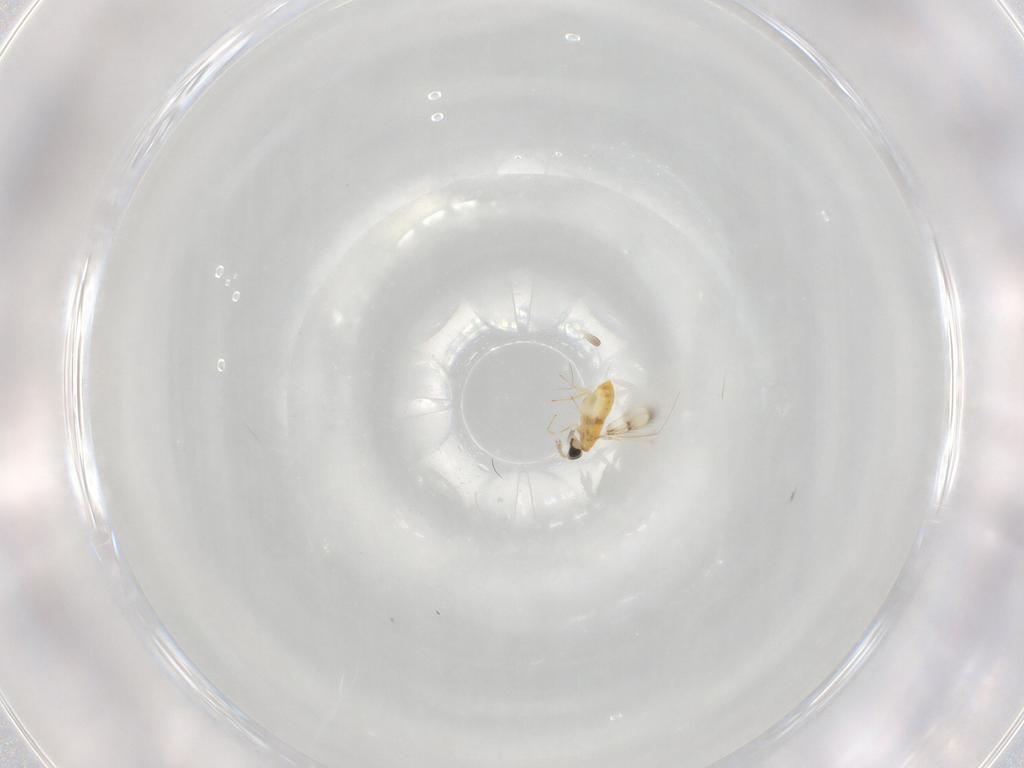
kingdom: Animalia
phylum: Arthropoda
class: Insecta
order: Hymenoptera
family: Trichogrammatidae
